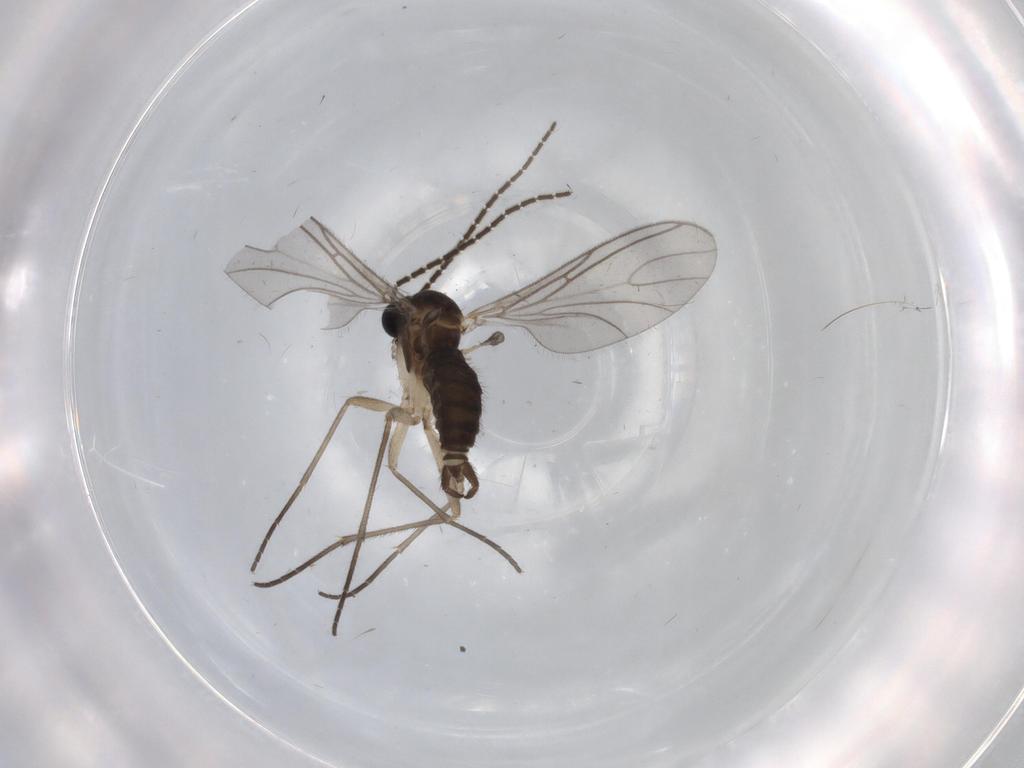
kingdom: Animalia
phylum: Arthropoda
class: Insecta
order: Diptera
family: Sciaridae
